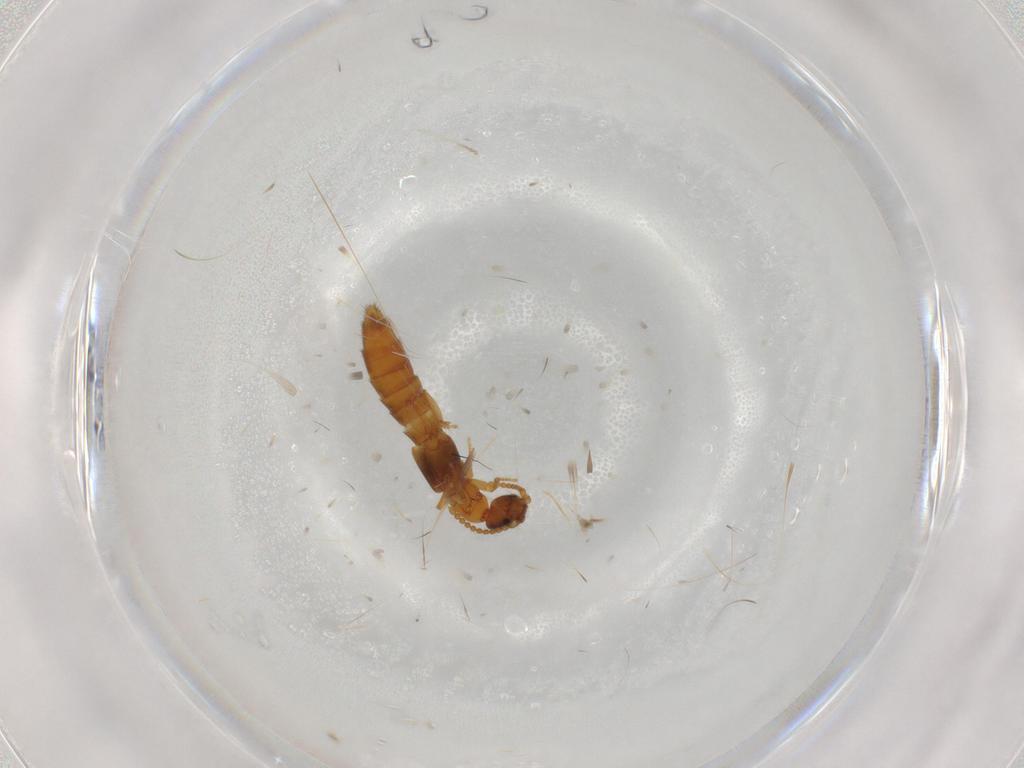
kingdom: Animalia
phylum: Arthropoda
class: Insecta
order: Coleoptera
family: Staphylinidae
